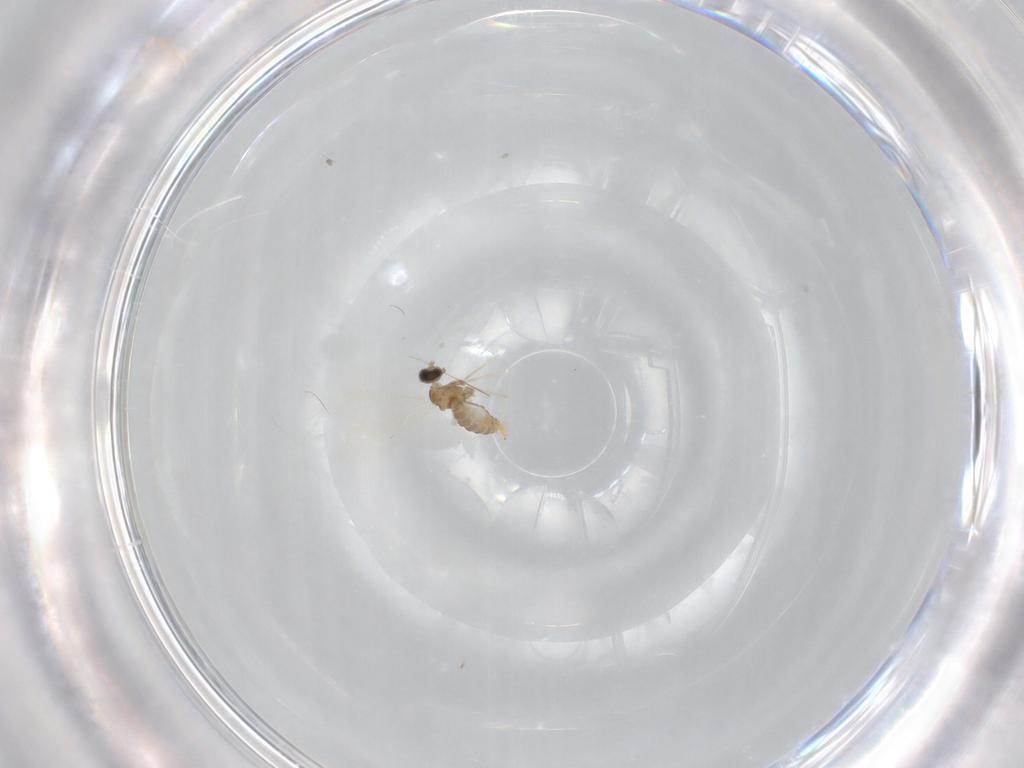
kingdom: Animalia
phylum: Arthropoda
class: Insecta
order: Diptera
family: Cecidomyiidae
